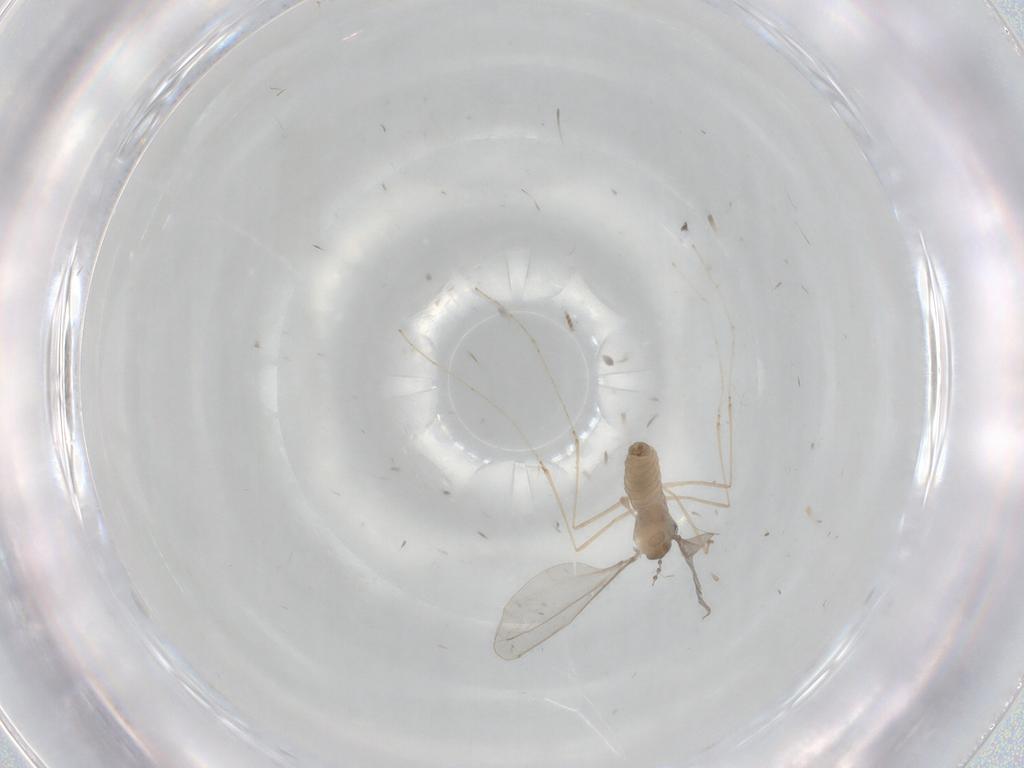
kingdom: Animalia
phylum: Arthropoda
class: Insecta
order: Diptera
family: Cecidomyiidae
